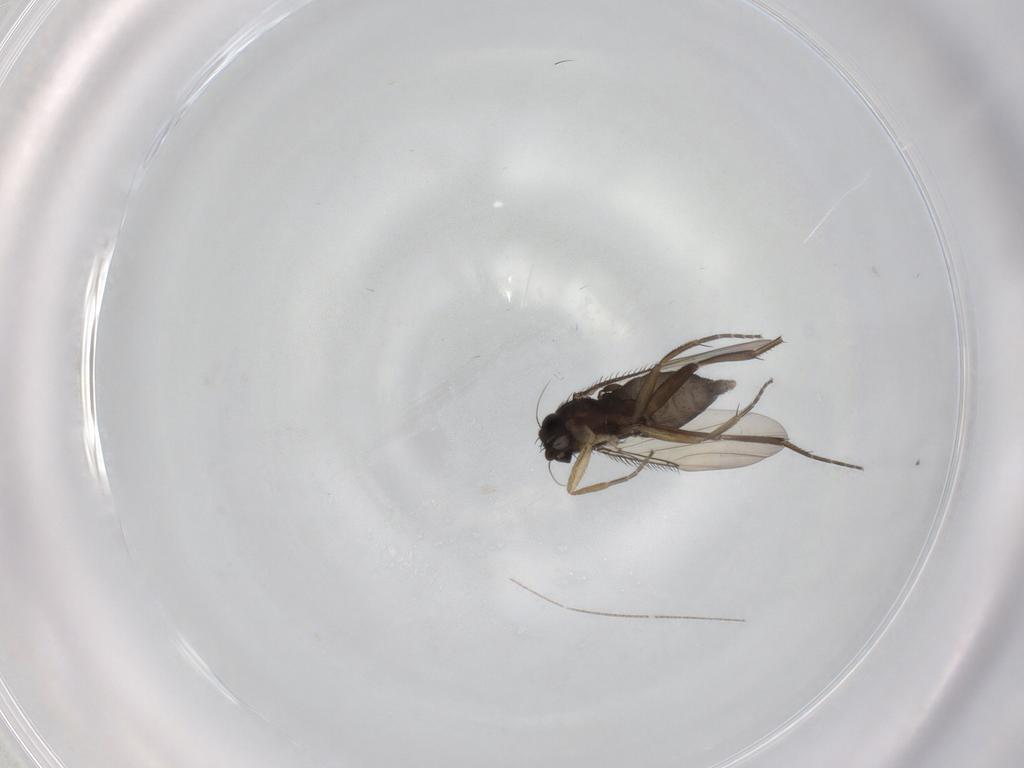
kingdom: Animalia
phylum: Arthropoda
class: Insecta
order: Diptera
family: Phoridae
